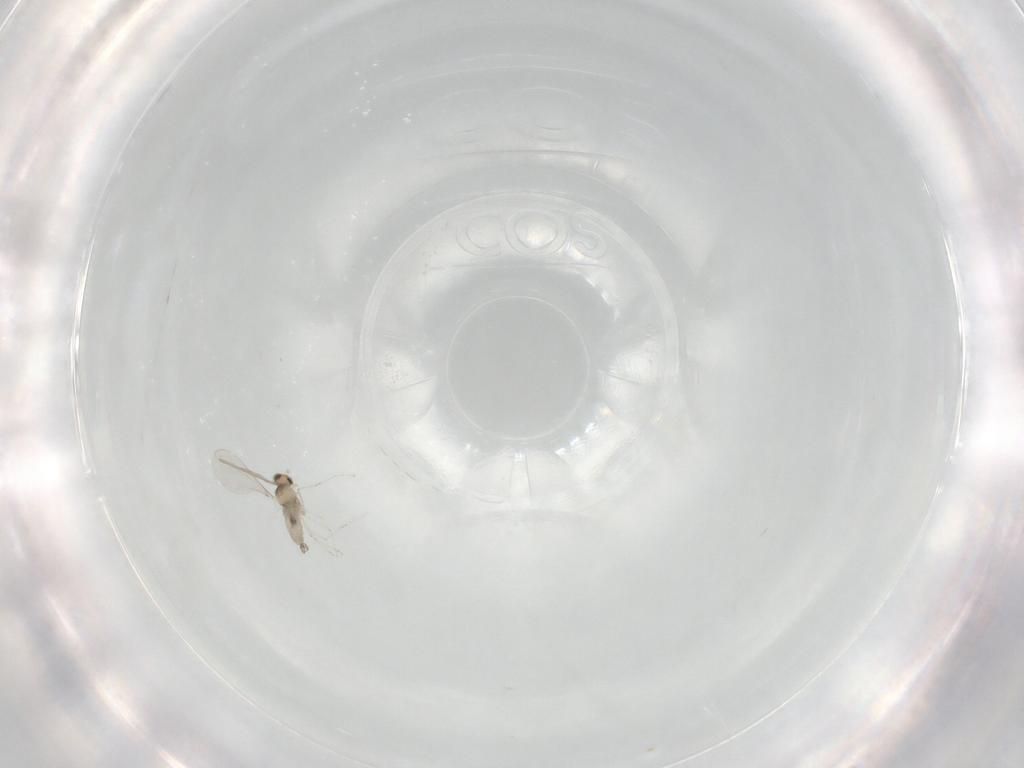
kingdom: Animalia
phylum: Arthropoda
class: Insecta
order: Diptera
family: Cecidomyiidae
